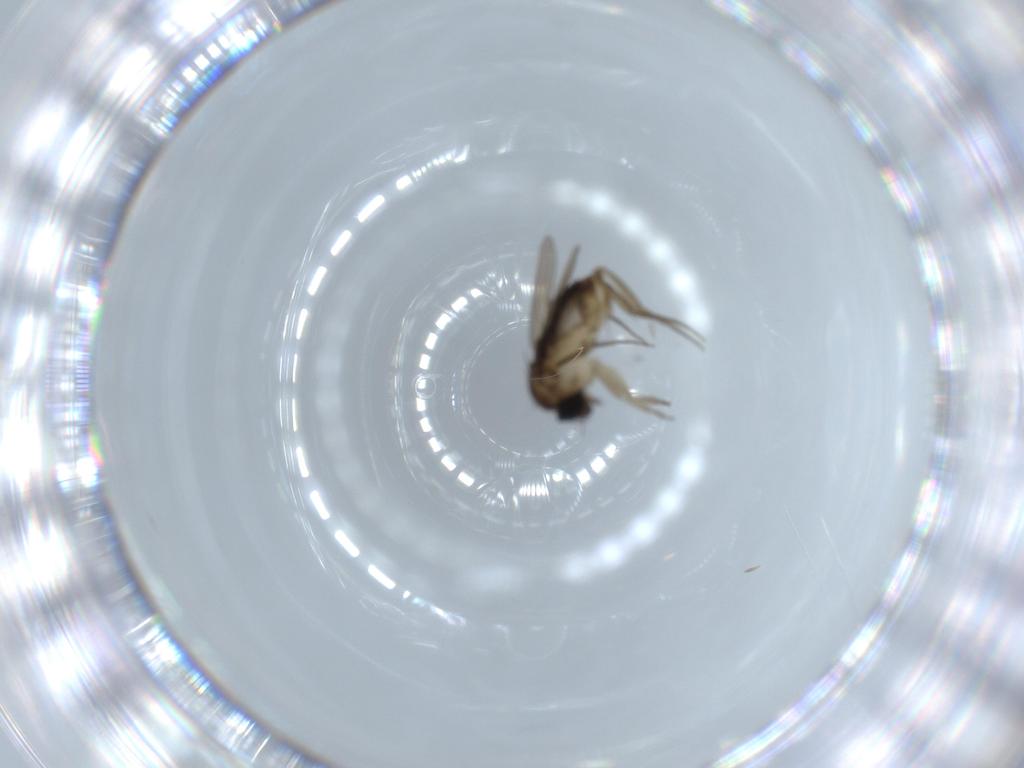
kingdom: Animalia
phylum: Arthropoda
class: Insecta
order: Diptera
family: Phoridae
